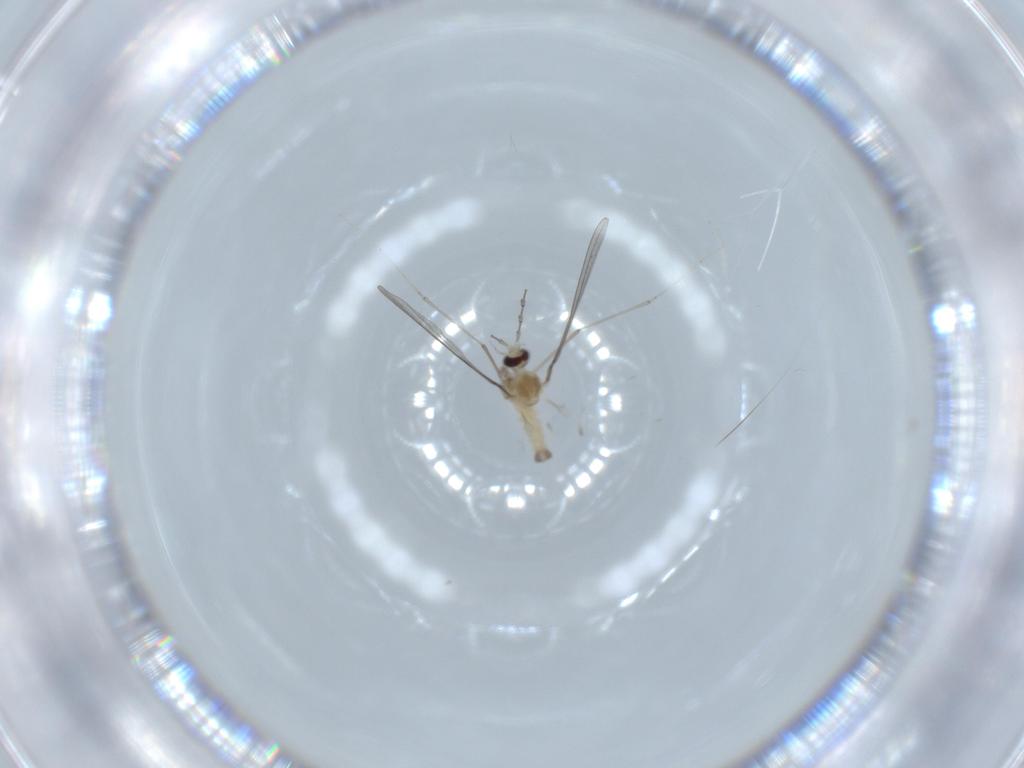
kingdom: Animalia
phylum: Arthropoda
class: Insecta
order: Diptera
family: Cecidomyiidae
